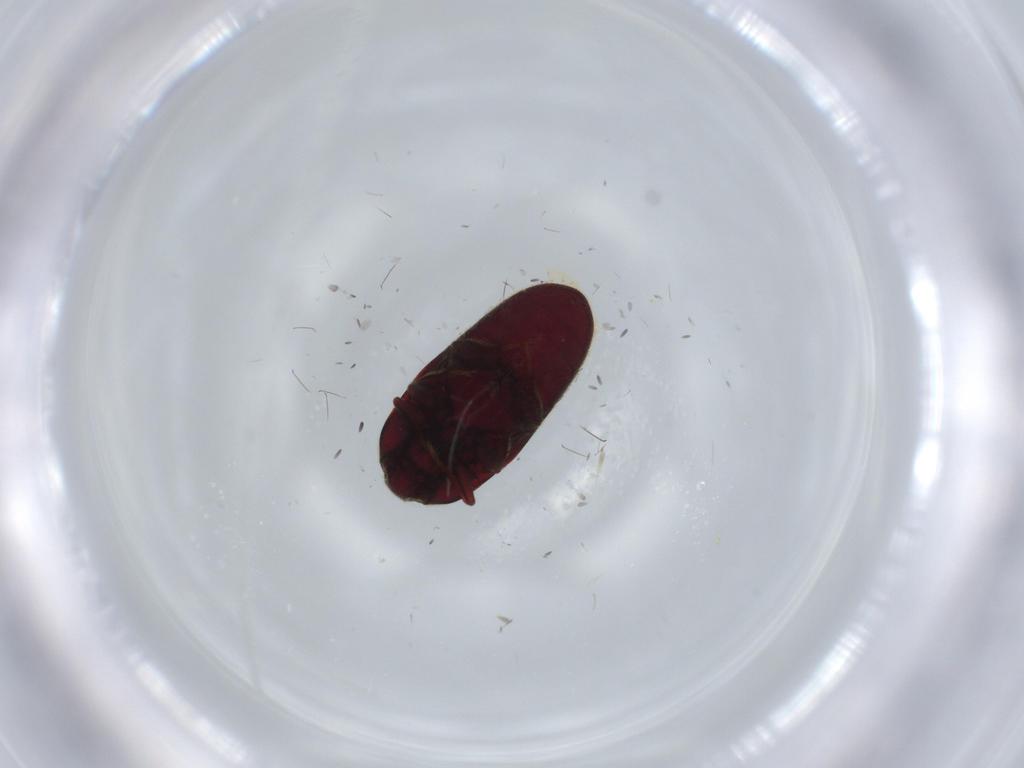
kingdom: Animalia
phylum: Arthropoda
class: Insecta
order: Coleoptera
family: Throscidae
